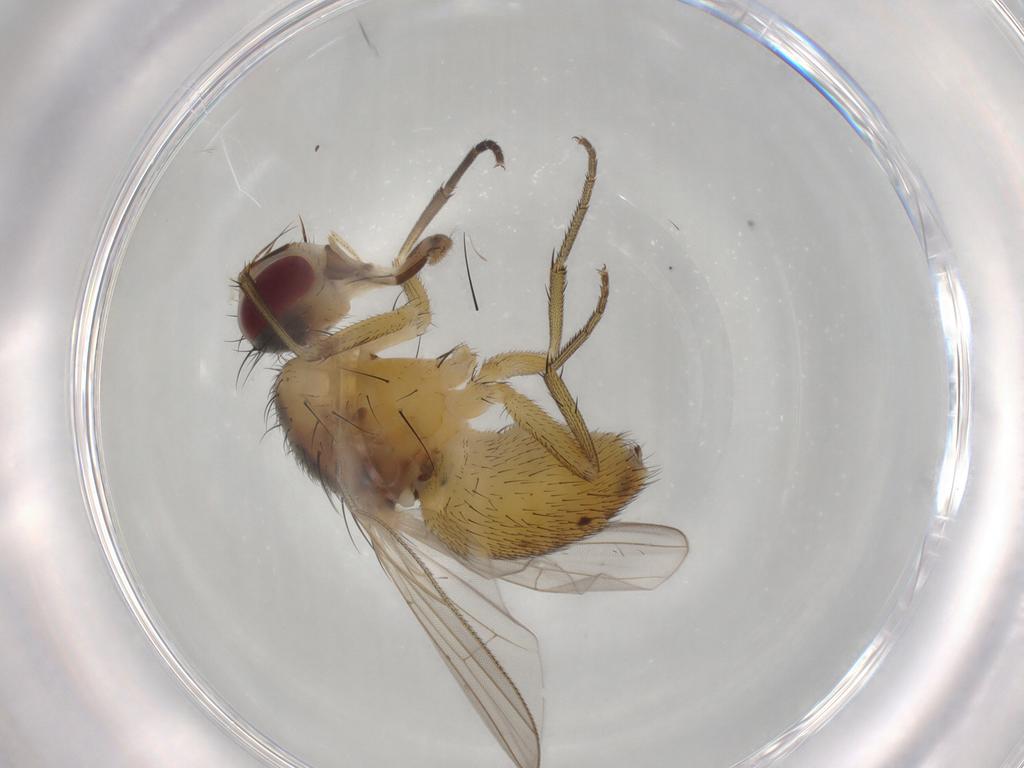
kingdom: Animalia
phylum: Arthropoda
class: Insecta
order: Diptera
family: Muscidae
